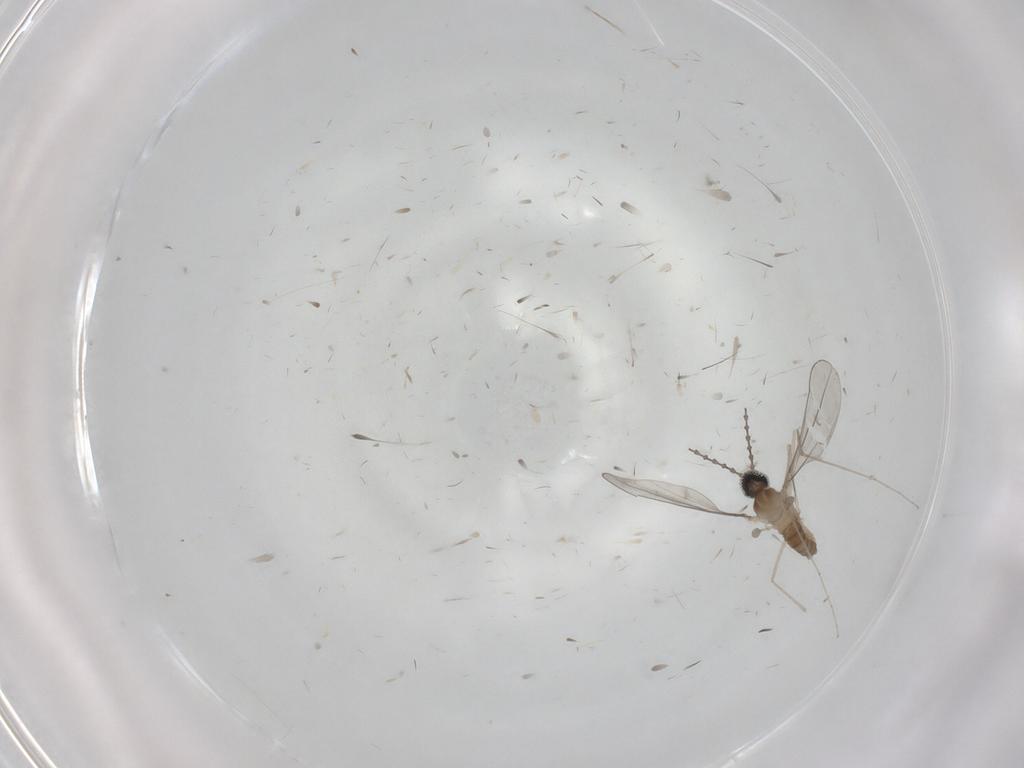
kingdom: Animalia
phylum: Arthropoda
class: Insecta
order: Diptera
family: Cecidomyiidae
